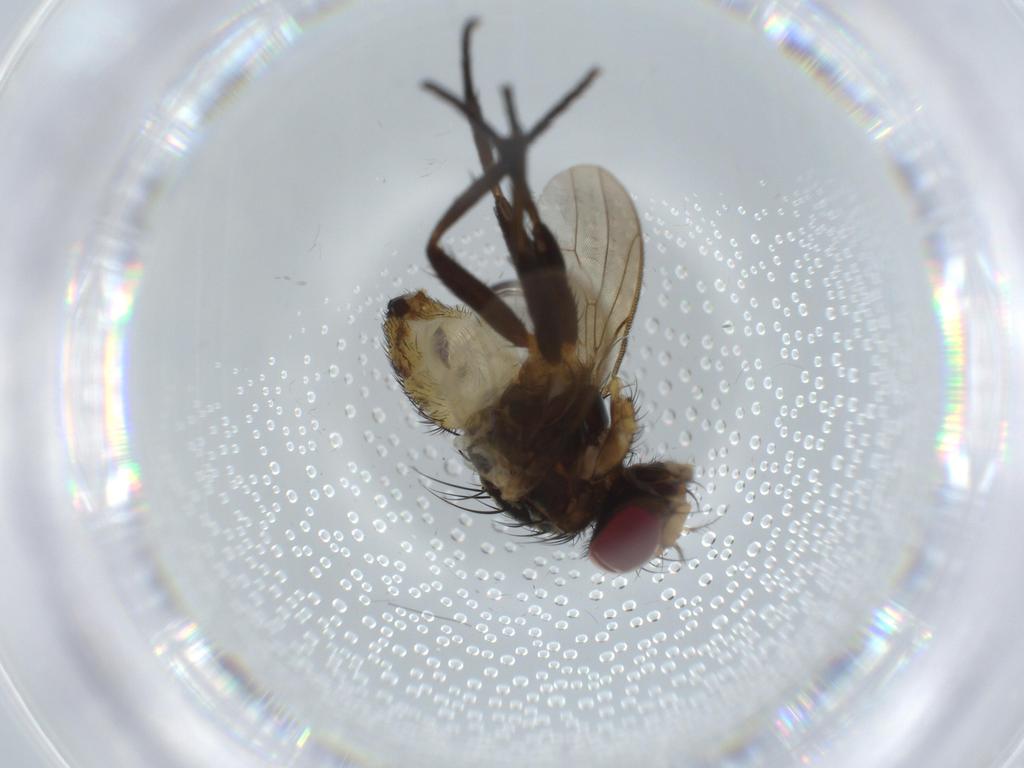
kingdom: Animalia
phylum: Arthropoda
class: Insecta
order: Diptera
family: Anthomyiidae
